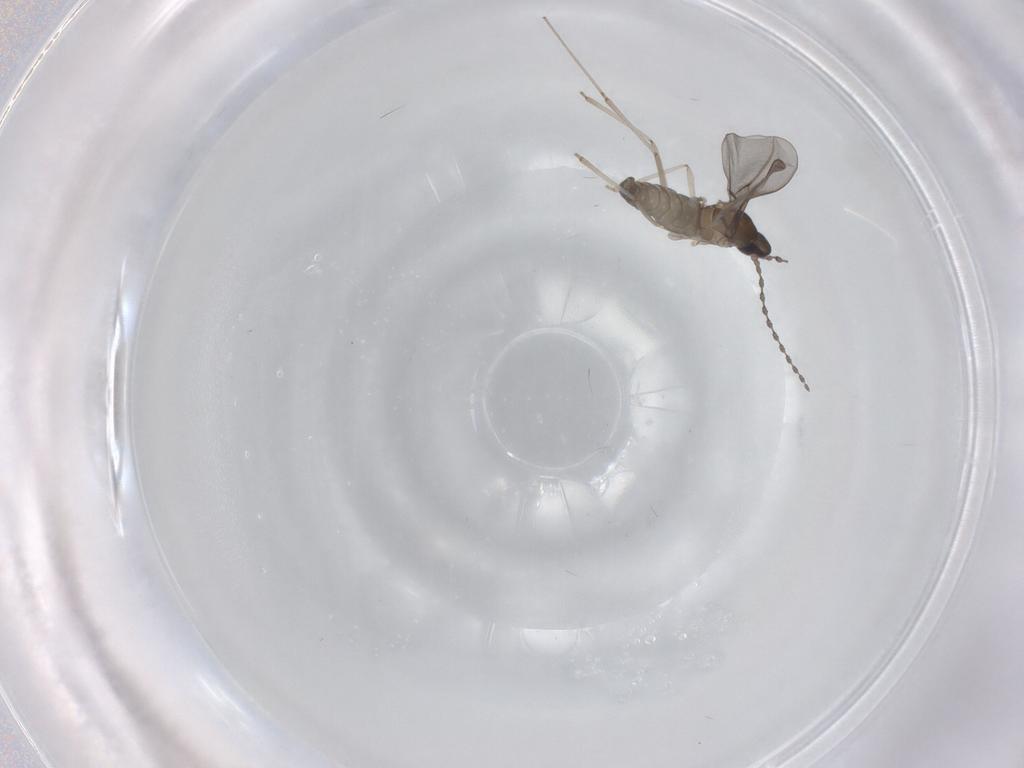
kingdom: Animalia
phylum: Arthropoda
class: Insecta
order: Diptera
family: Cecidomyiidae
